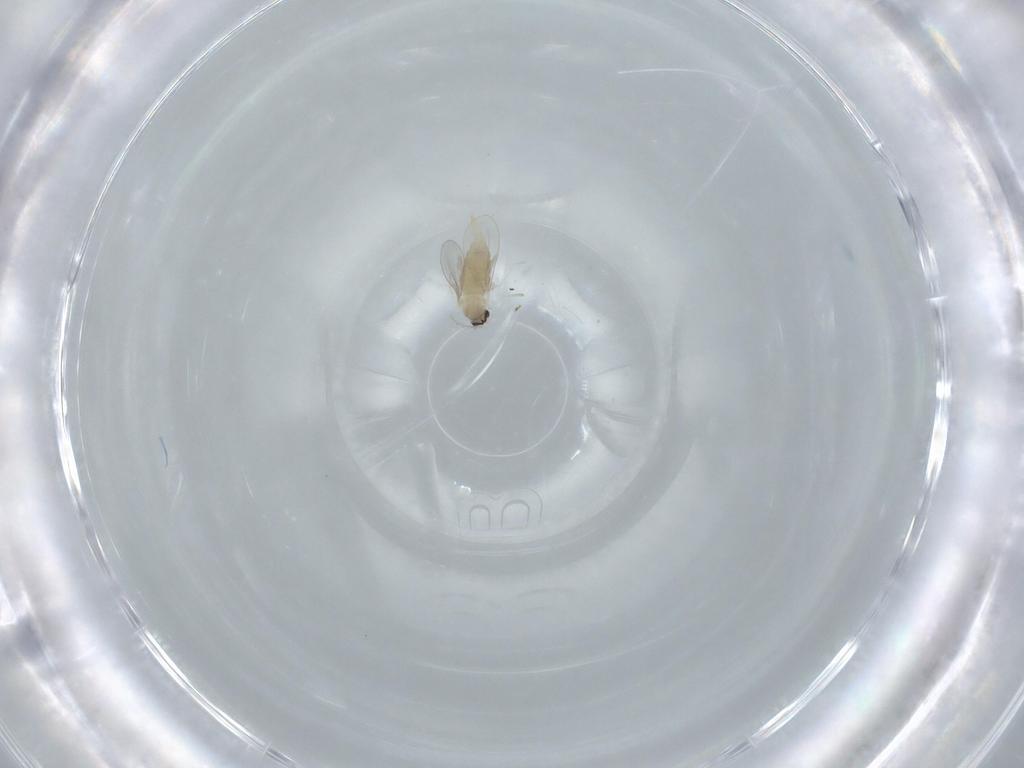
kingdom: Animalia
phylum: Arthropoda
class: Insecta
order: Diptera
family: Cecidomyiidae
